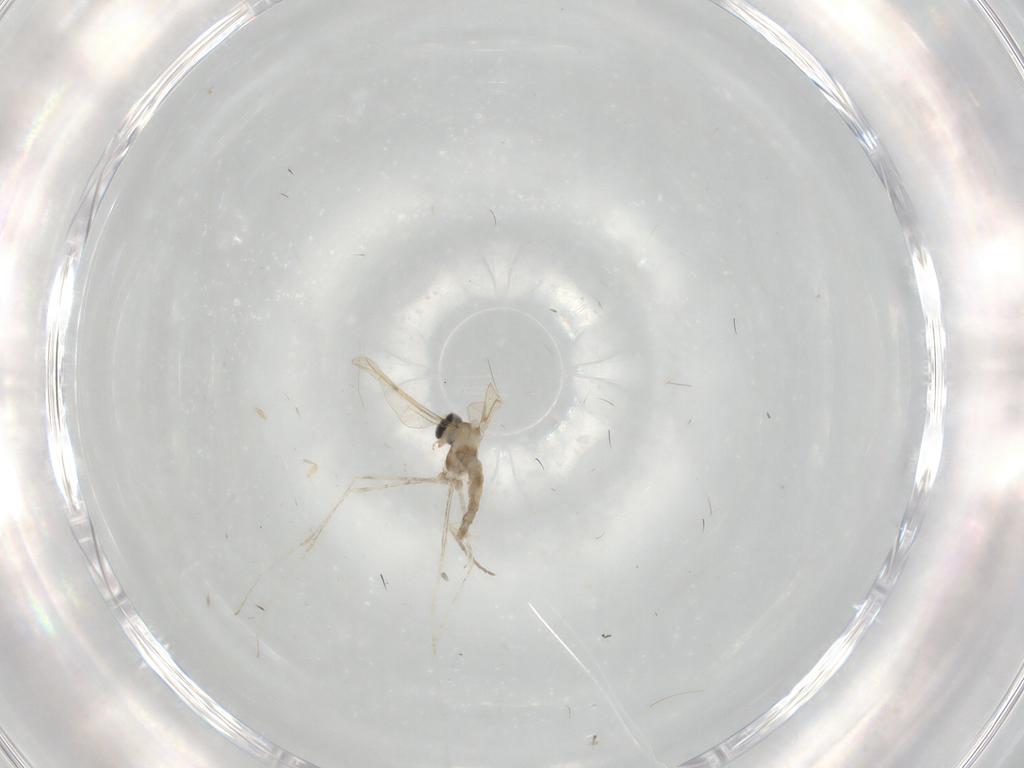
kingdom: Animalia
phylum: Arthropoda
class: Insecta
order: Diptera
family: Cecidomyiidae
